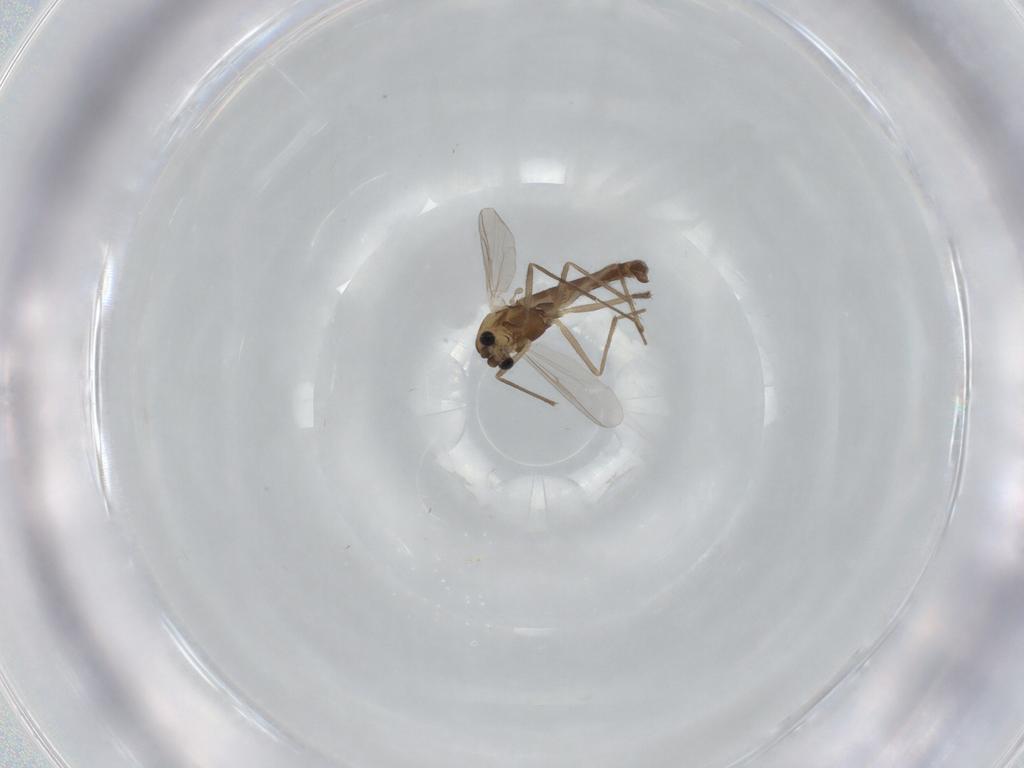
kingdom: Animalia
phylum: Arthropoda
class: Insecta
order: Diptera
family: Chironomidae
